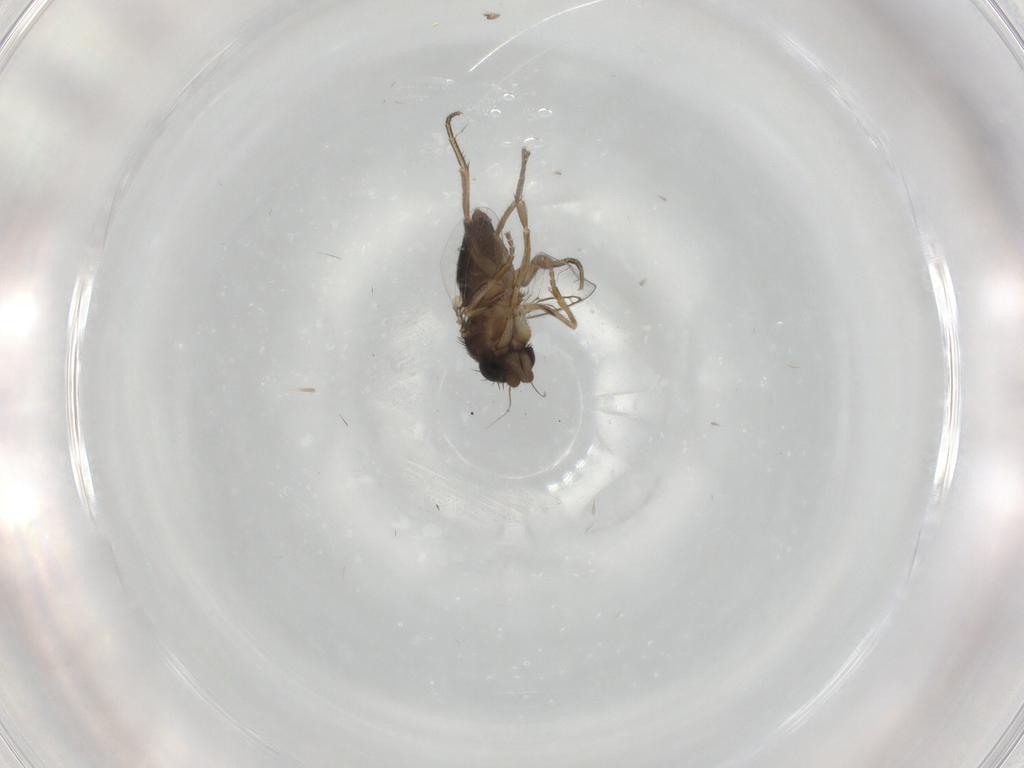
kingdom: Animalia
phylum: Arthropoda
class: Insecta
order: Diptera
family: Phoridae
